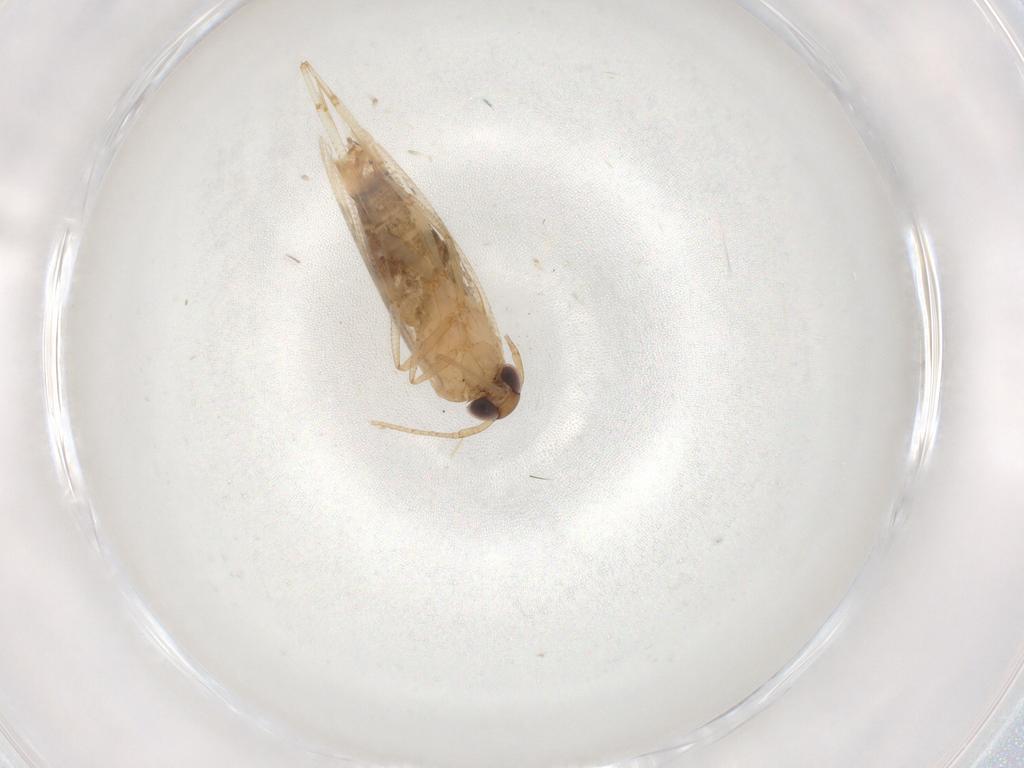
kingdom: Animalia
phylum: Arthropoda
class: Insecta
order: Lepidoptera
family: Cosmopterigidae
